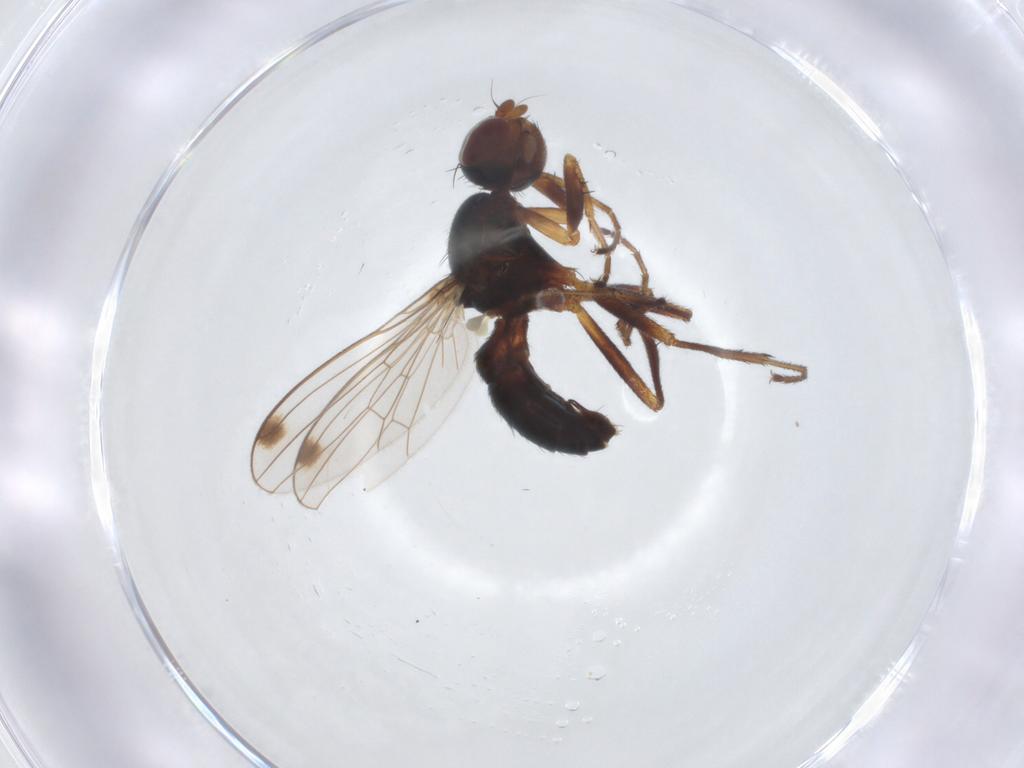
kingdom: Animalia
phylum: Arthropoda
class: Insecta
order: Diptera
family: Sepsidae
